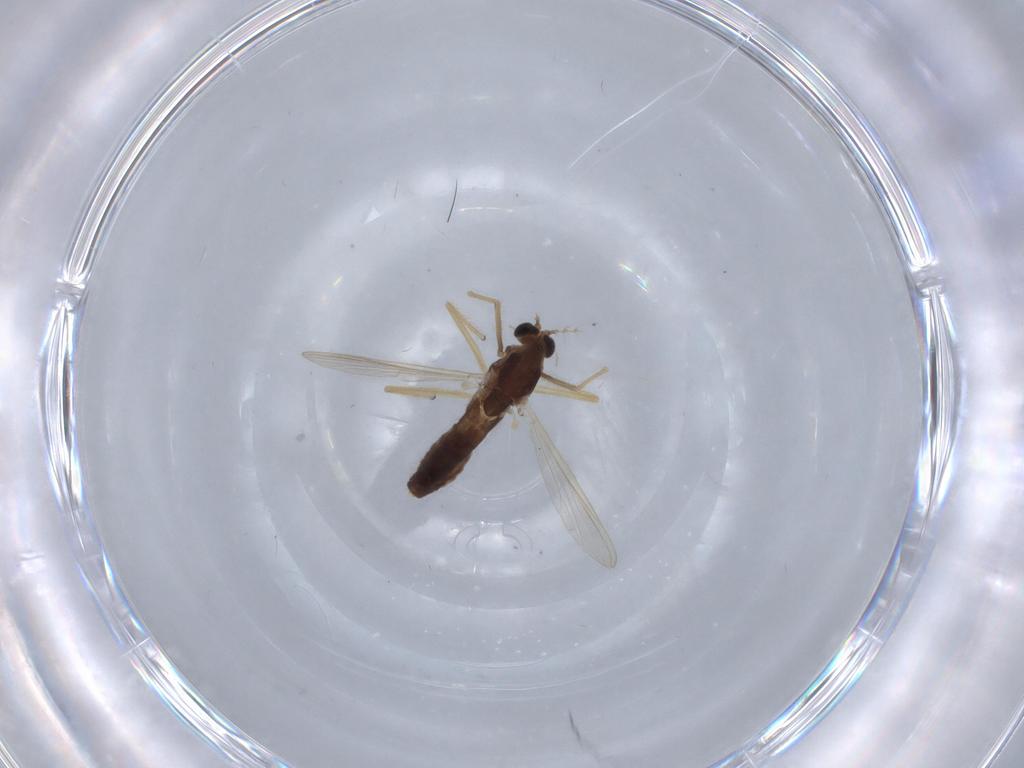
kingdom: Animalia
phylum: Arthropoda
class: Insecta
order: Diptera
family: Chironomidae
